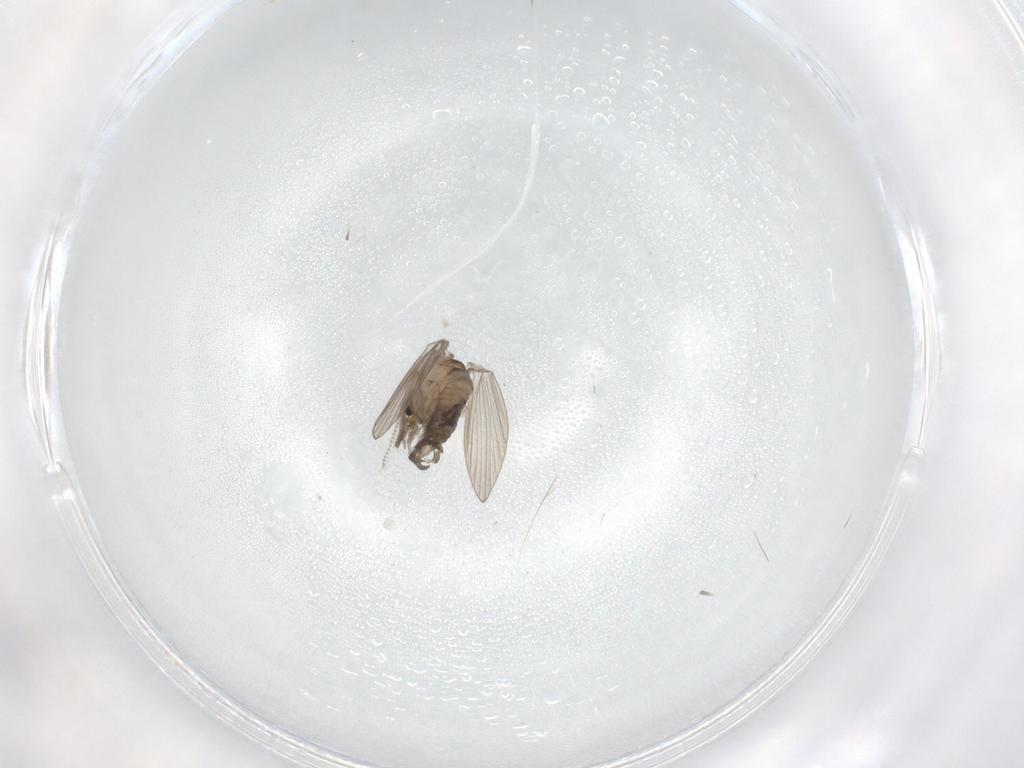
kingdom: Animalia
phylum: Arthropoda
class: Insecta
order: Diptera
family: Psychodidae
